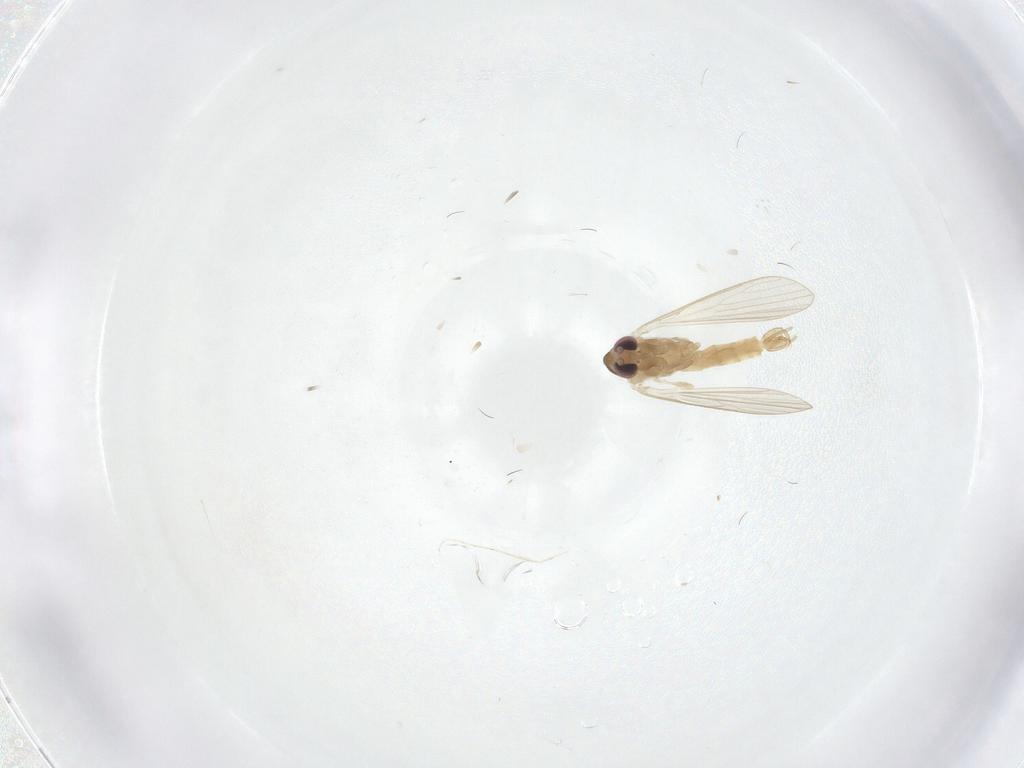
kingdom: Animalia
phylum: Arthropoda
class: Insecta
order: Diptera
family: Psychodidae
